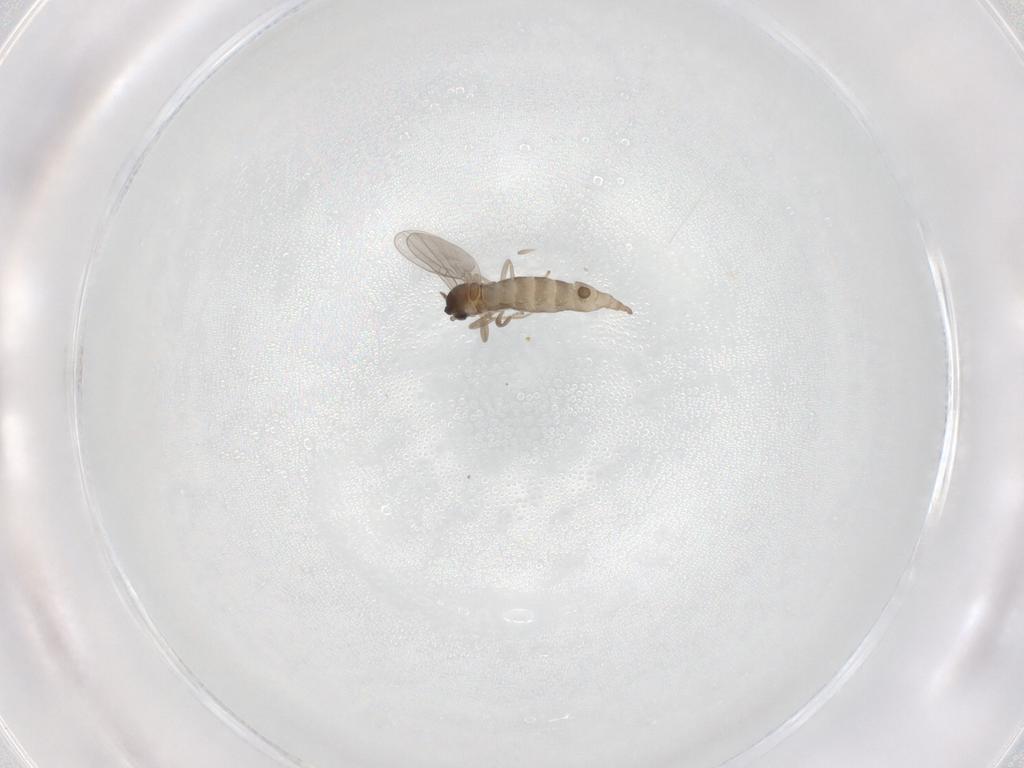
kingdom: Animalia
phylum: Arthropoda
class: Insecta
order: Diptera
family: Cecidomyiidae
